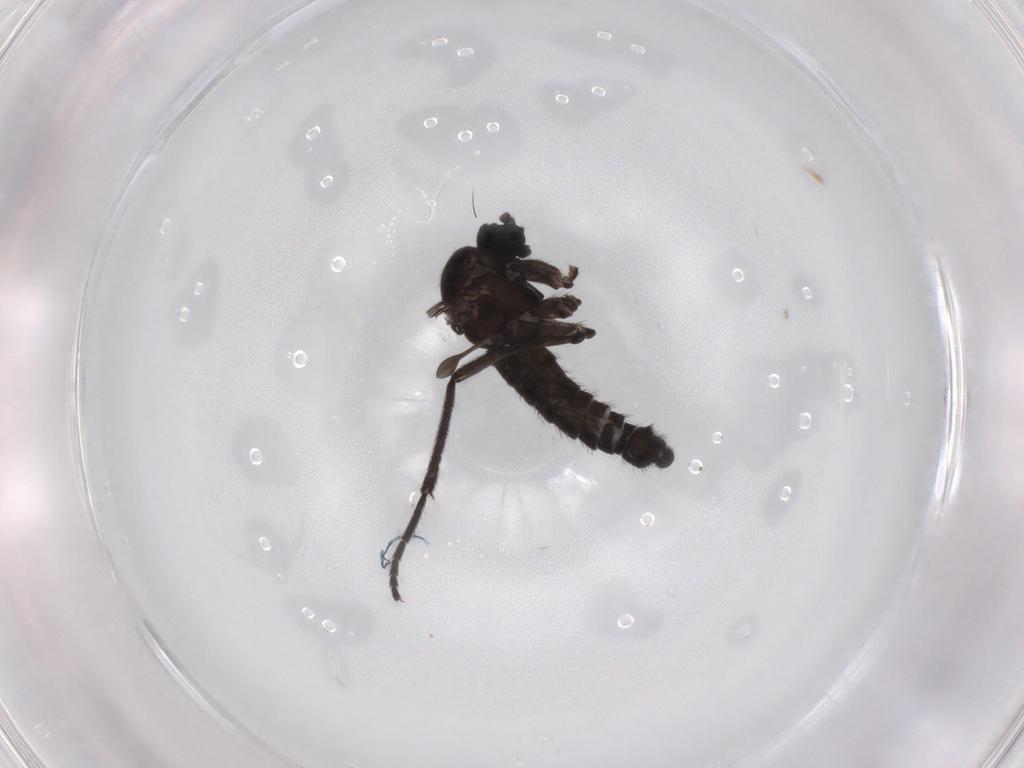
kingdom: Animalia
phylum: Arthropoda
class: Insecta
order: Diptera
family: Sciaridae
